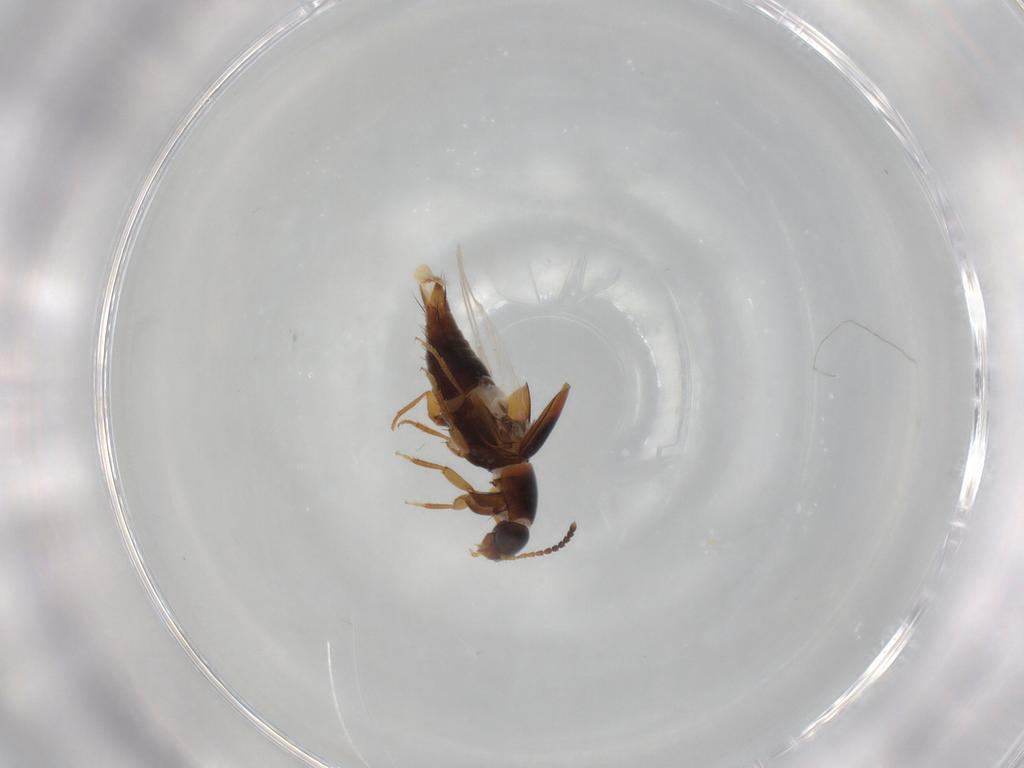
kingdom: Animalia
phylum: Arthropoda
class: Insecta
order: Coleoptera
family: Staphylinidae
